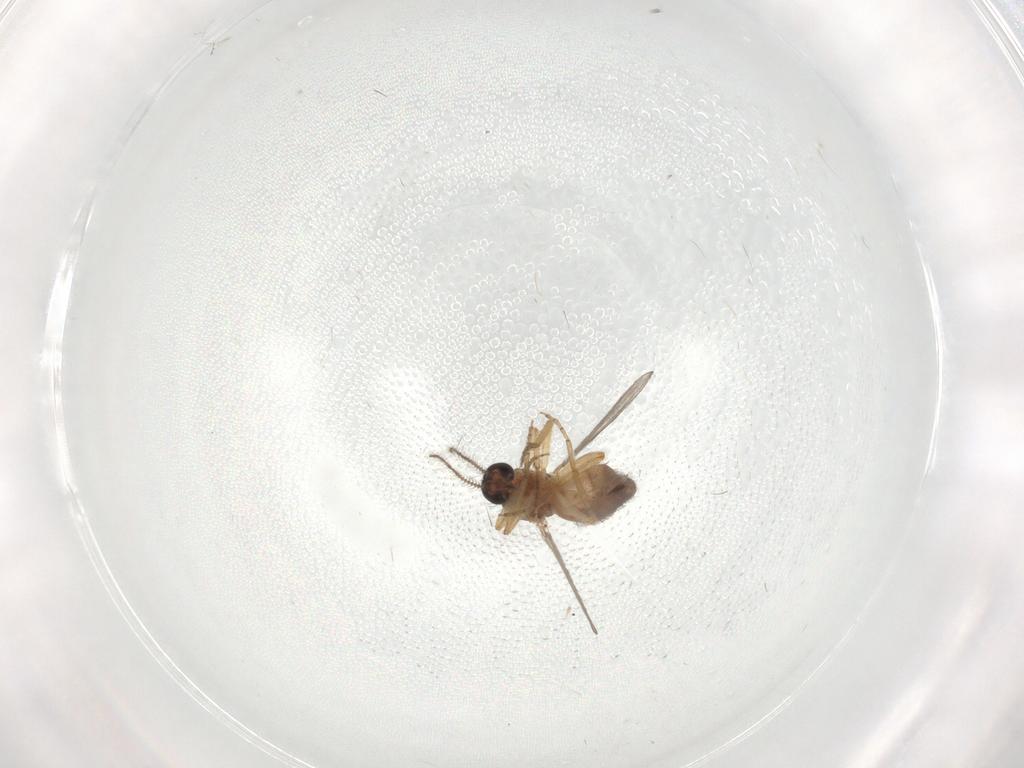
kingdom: Animalia
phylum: Arthropoda
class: Insecta
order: Diptera
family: Ceratopogonidae
